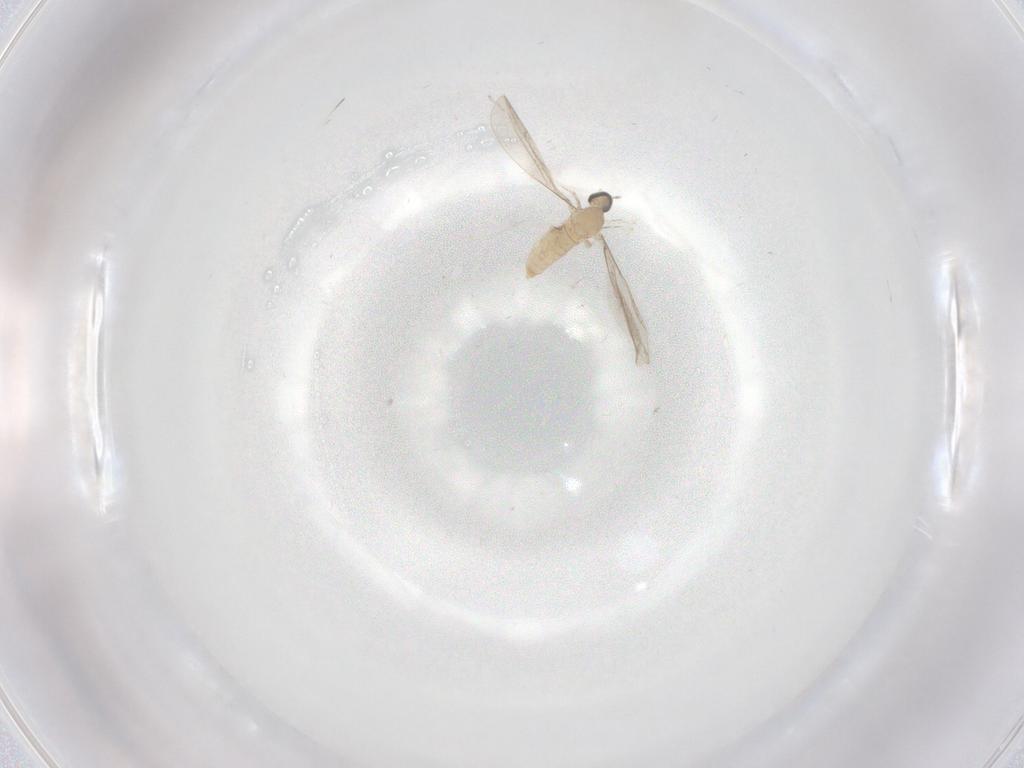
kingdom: Animalia
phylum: Arthropoda
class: Insecta
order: Diptera
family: Cecidomyiidae
